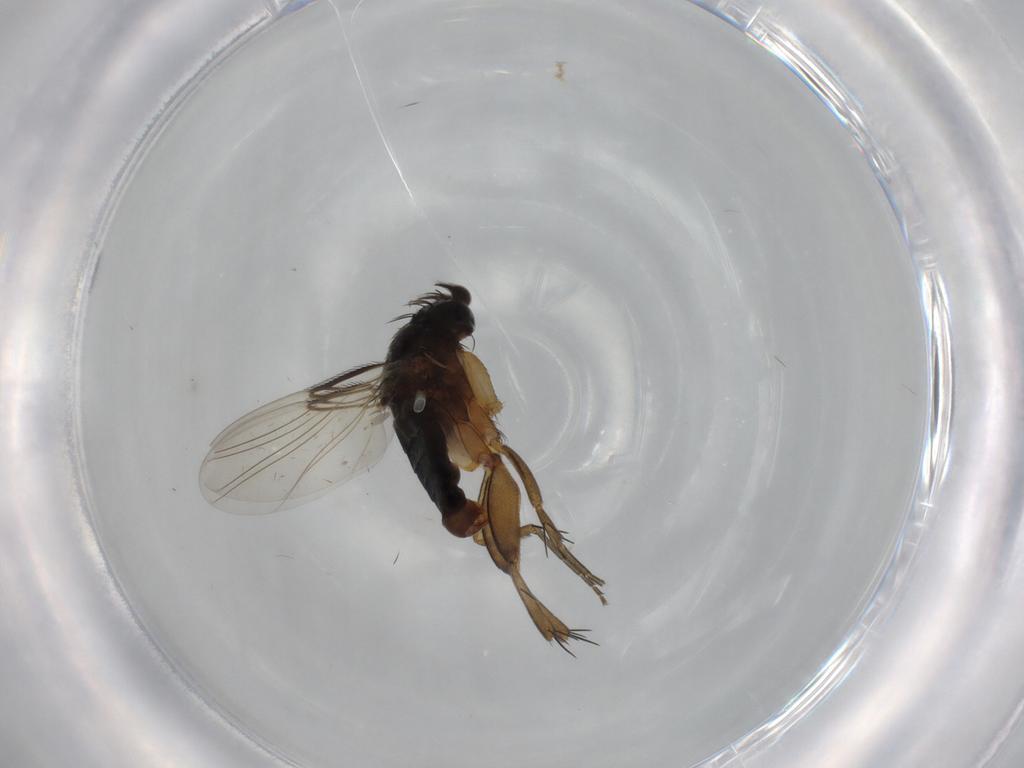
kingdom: Animalia
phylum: Arthropoda
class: Insecta
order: Diptera
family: Phoridae
